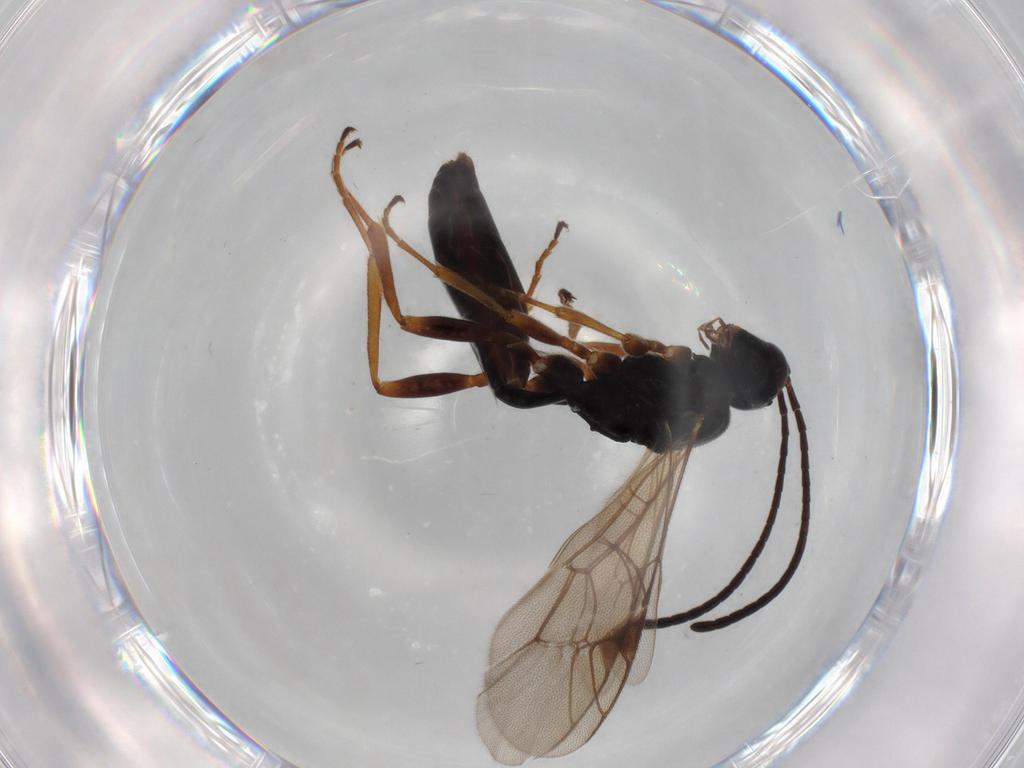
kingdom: Animalia
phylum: Arthropoda
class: Insecta
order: Hymenoptera
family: Ichneumonidae
